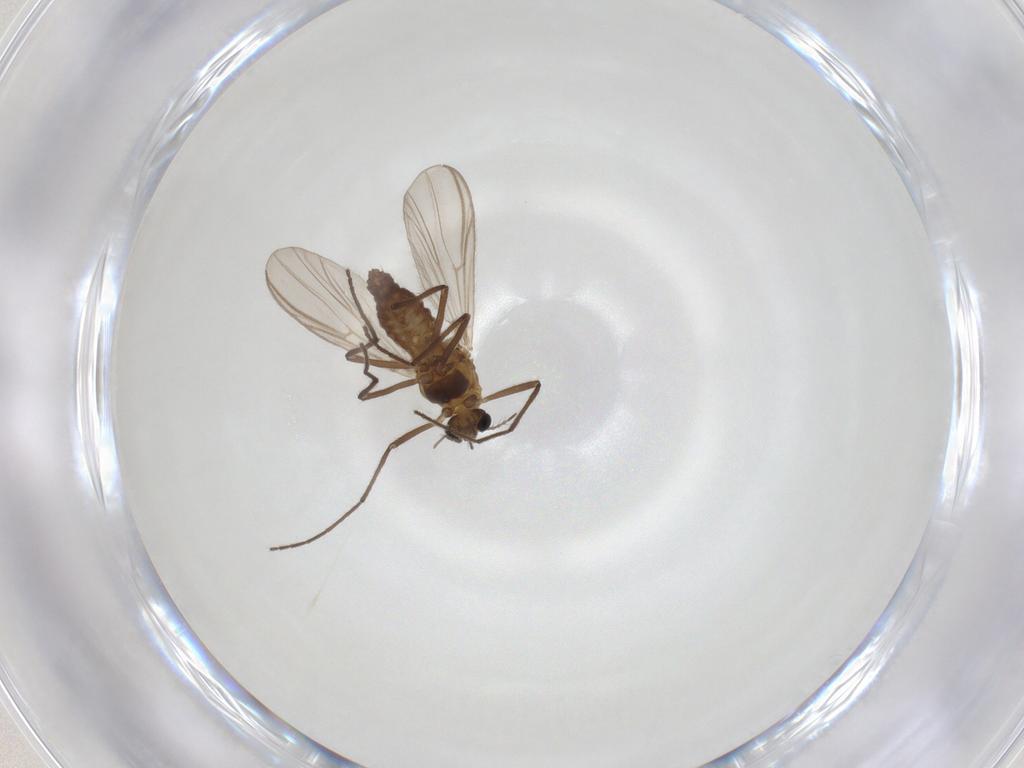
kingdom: Animalia
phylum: Arthropoda
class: Insecta
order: Diptera
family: Chironomidae
